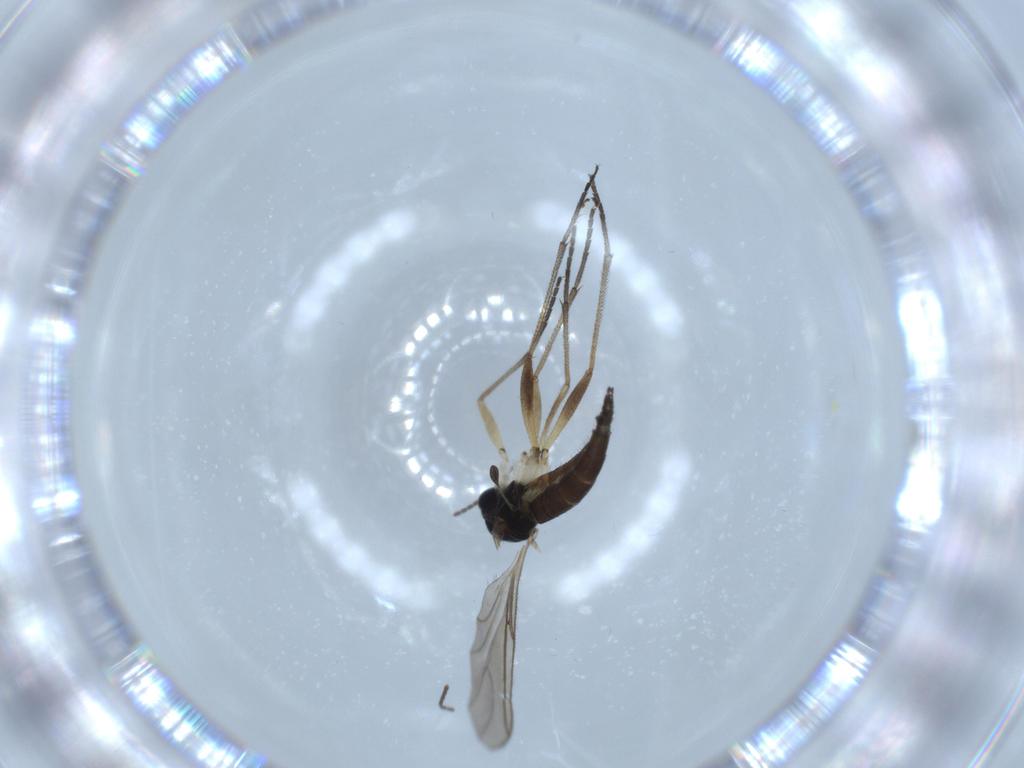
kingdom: Animalia
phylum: Arthropoda
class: Insecta
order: Diptera
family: Sciaridae
